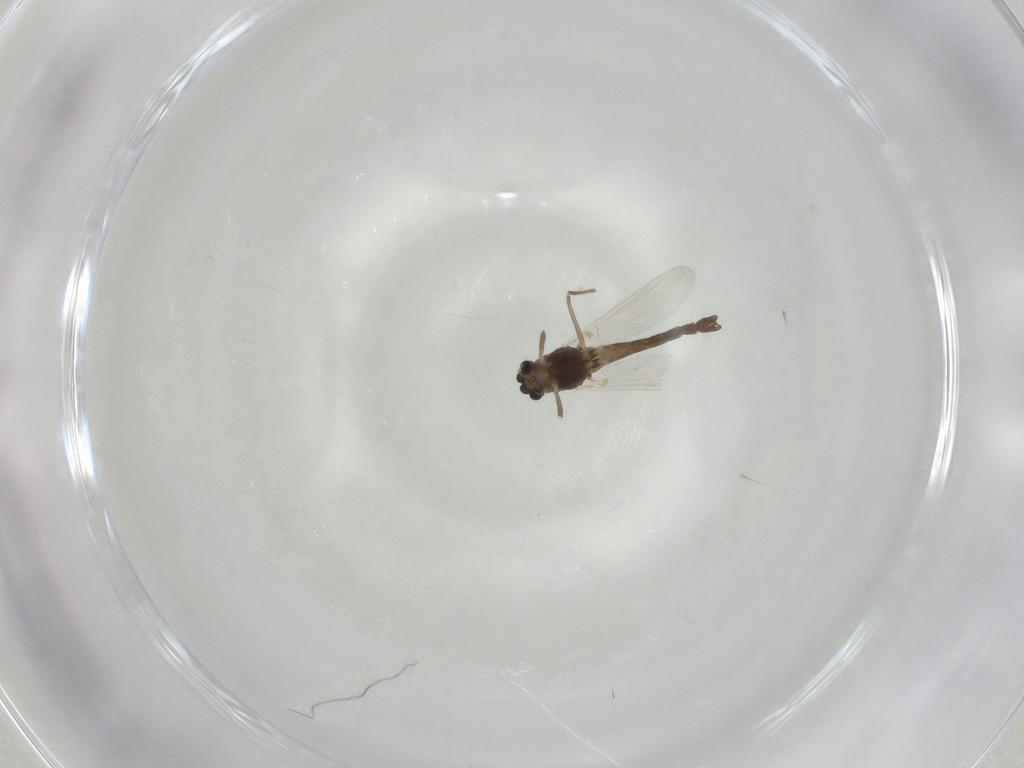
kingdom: Animalia
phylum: Arthropoda
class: Insecta
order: Diptera
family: Chironomidae
